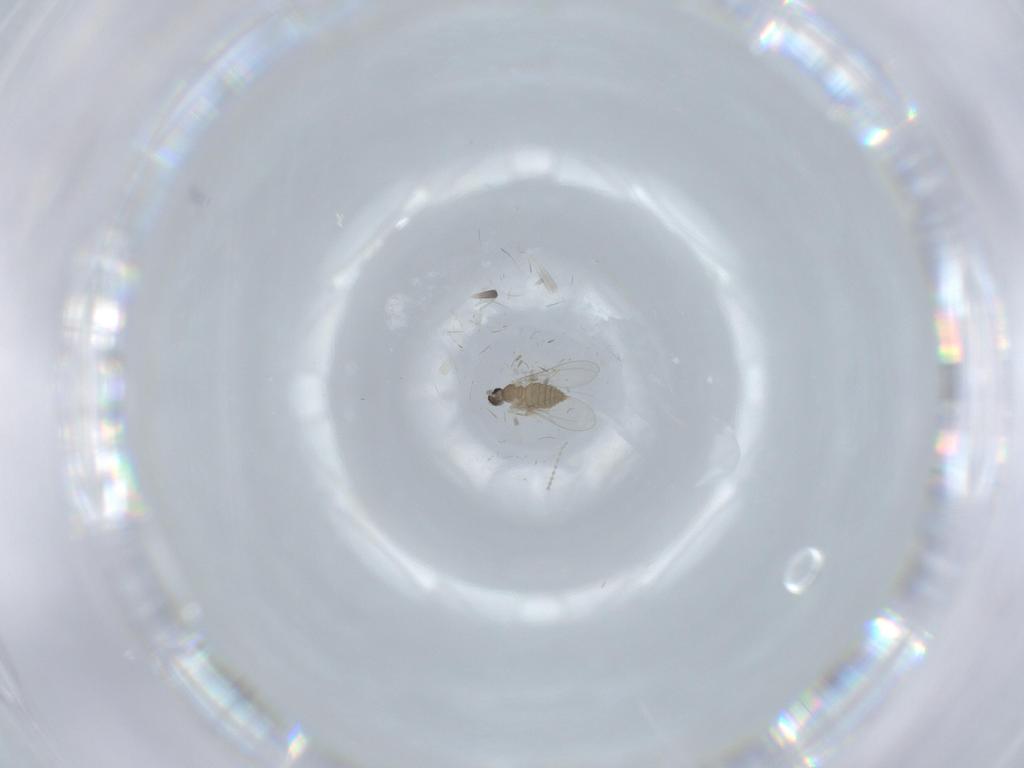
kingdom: Animalia
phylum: Arthropoda
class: Insecta
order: Diptera
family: Cecidomyiidae
